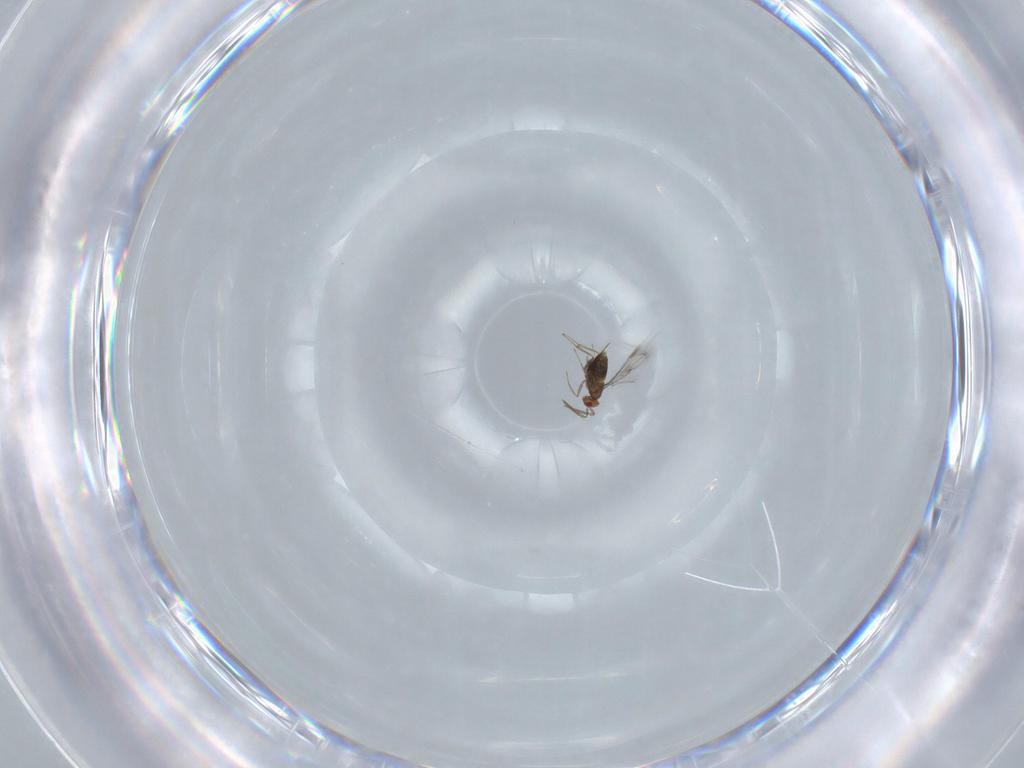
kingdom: Animalia
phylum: Arthropoda
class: Insecta
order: Hymenoptera
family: Trichogrammatidae
